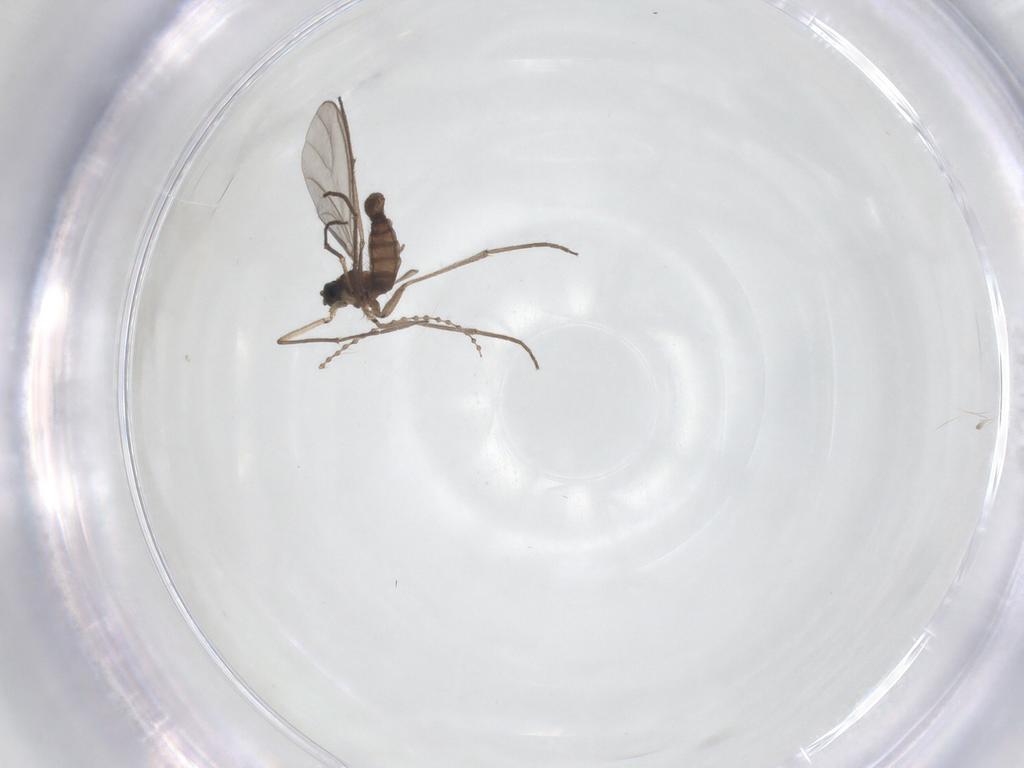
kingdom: Animalia
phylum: Arthropoda
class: Insecta
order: Diptera
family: Cecidomyiidae
